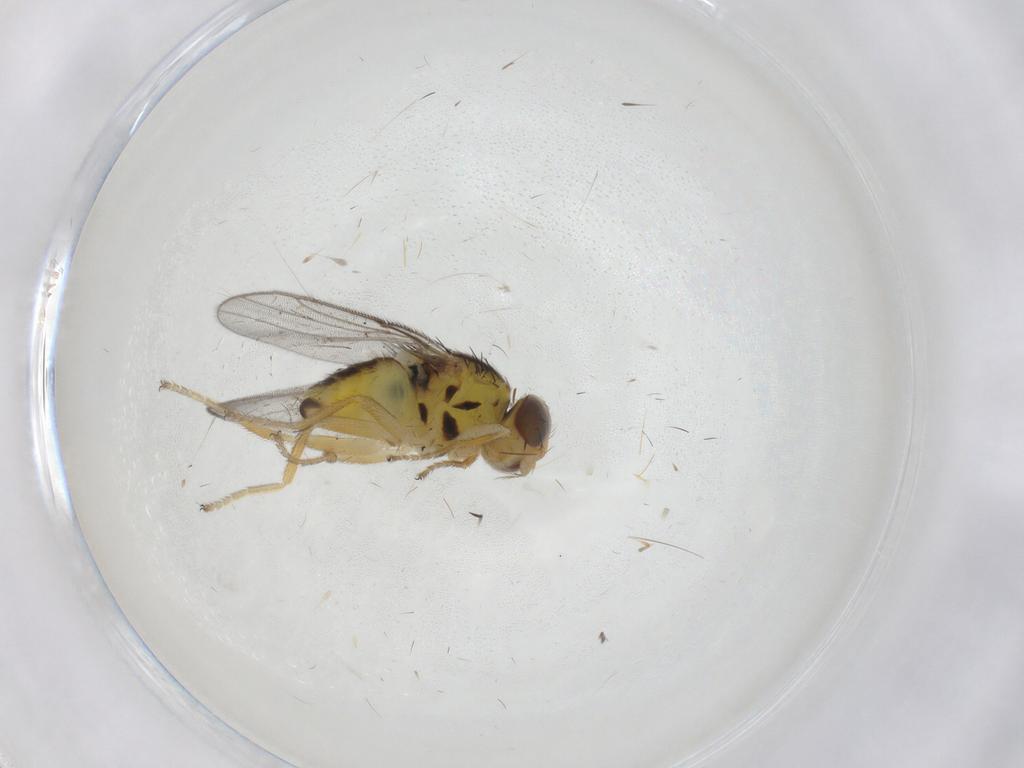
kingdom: Animalia
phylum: Arthropoda
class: Insecta
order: Diptera
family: Chloropidae
